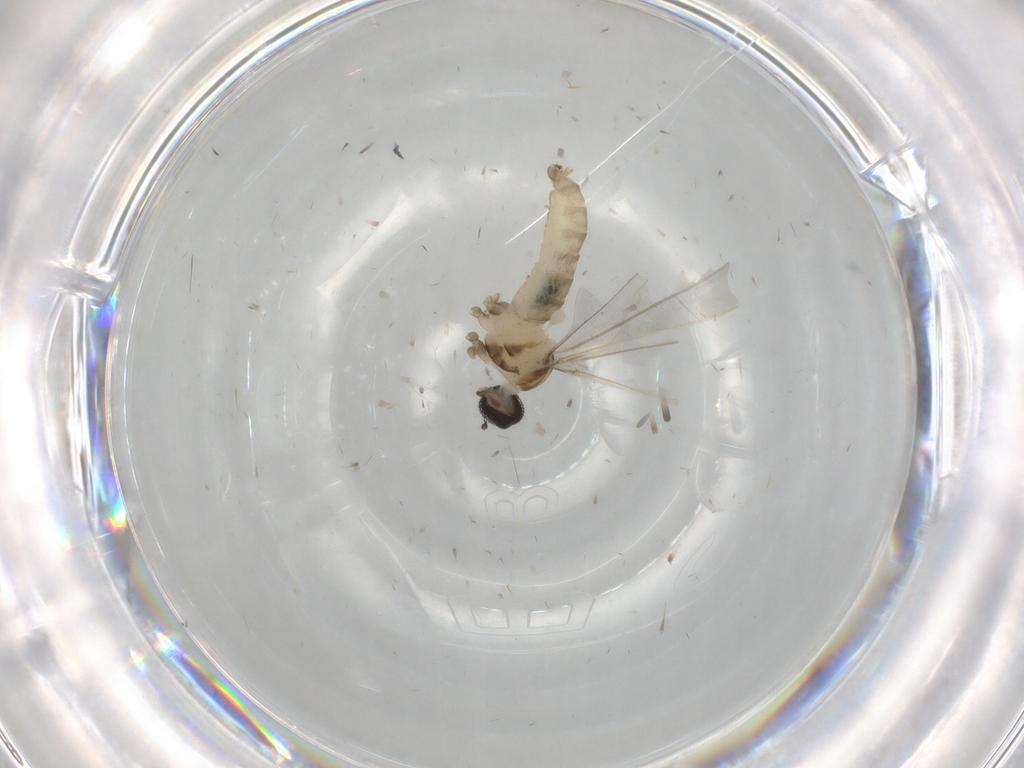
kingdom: Animalia
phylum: Arthropoda
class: Insecta
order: Diptera
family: Cecidomyiidae
